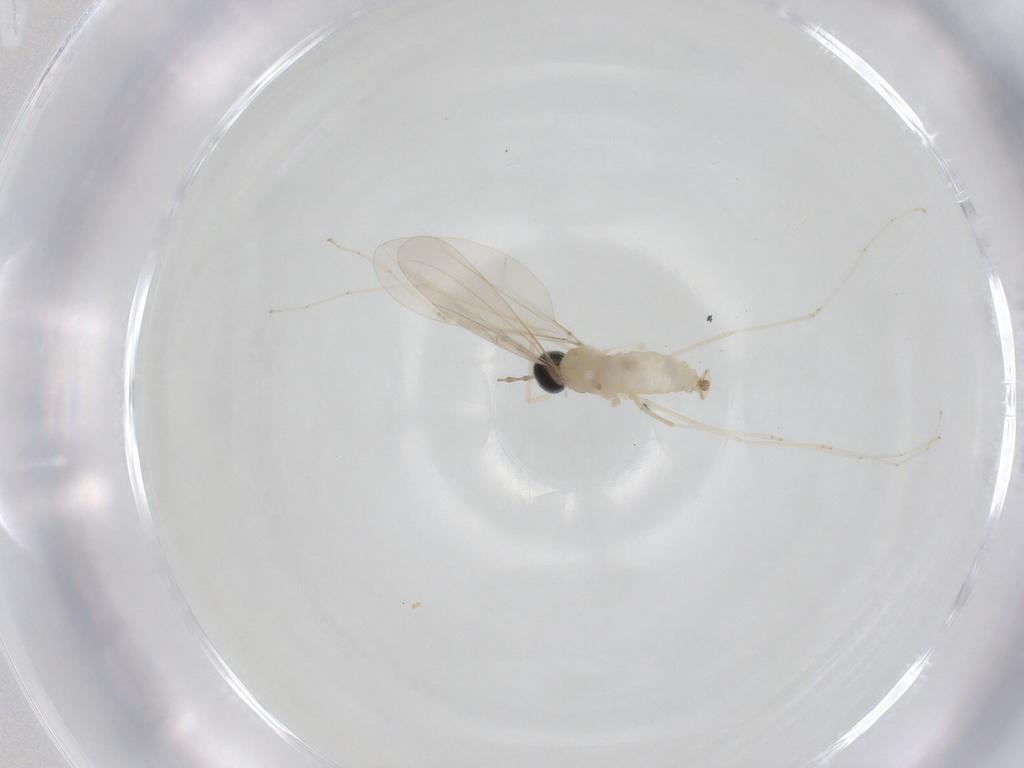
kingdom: Animalia
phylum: Arthropoda
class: Insecta
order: Diptera
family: Cecidomyiidae
